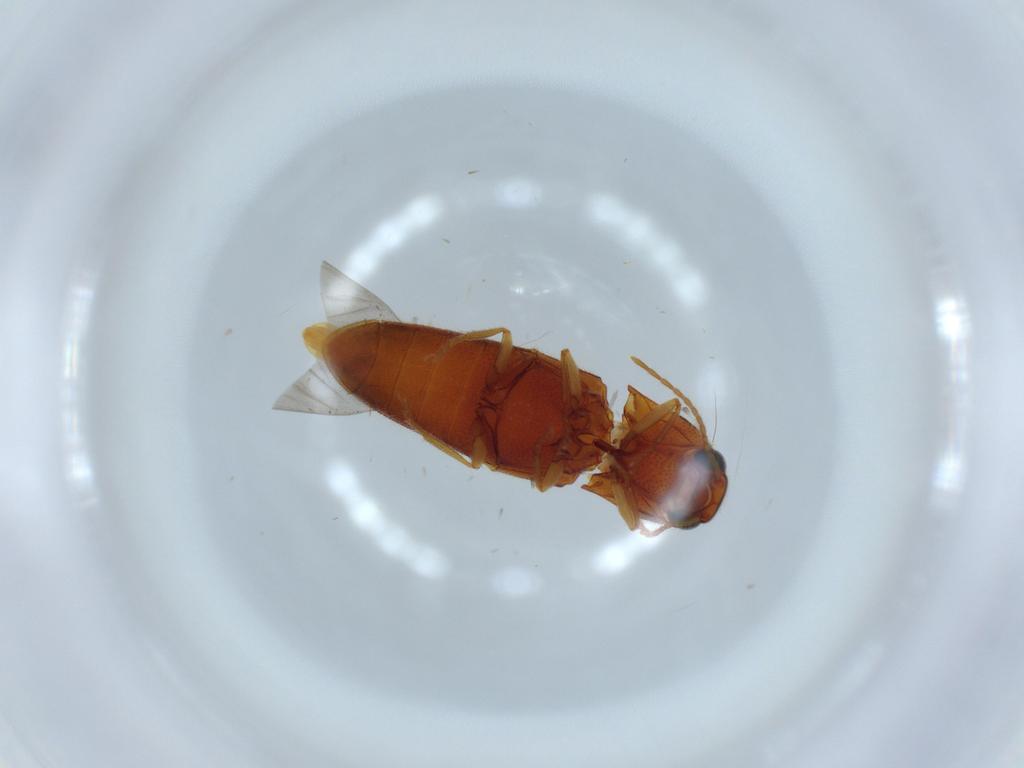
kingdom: Animalia
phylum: Arthropoda
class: Insecta
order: Coleoptera
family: Elateridae
